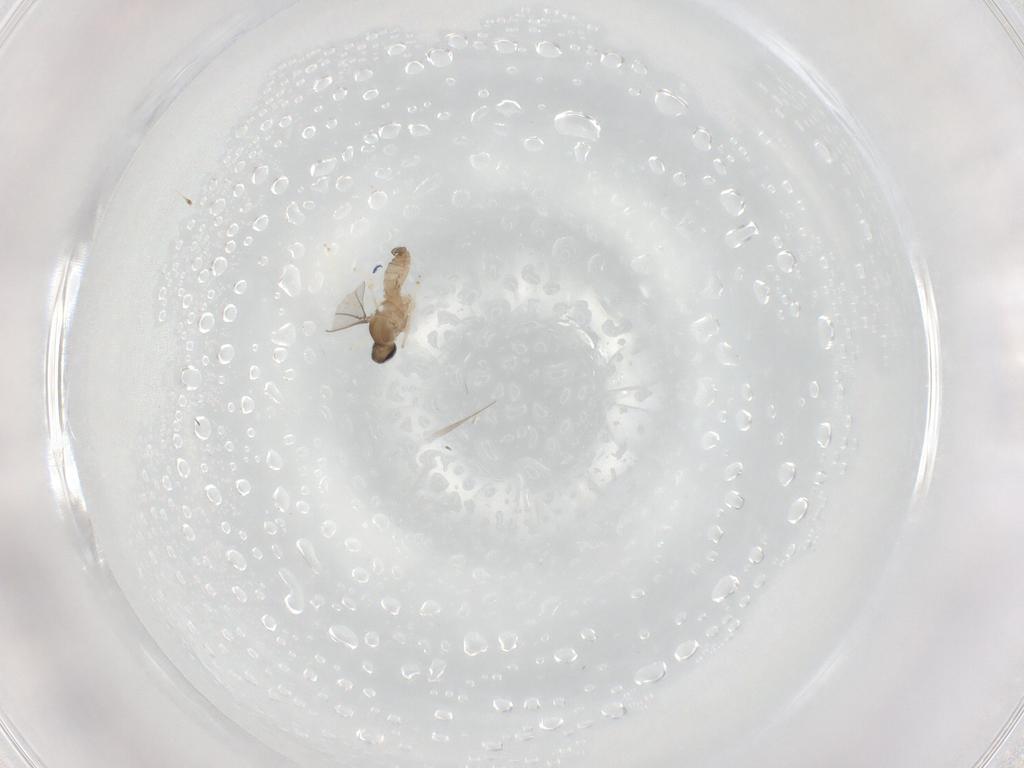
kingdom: Animalia
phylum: Arthropoda
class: Insecta
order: Diptera
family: Cecidomyiidae
